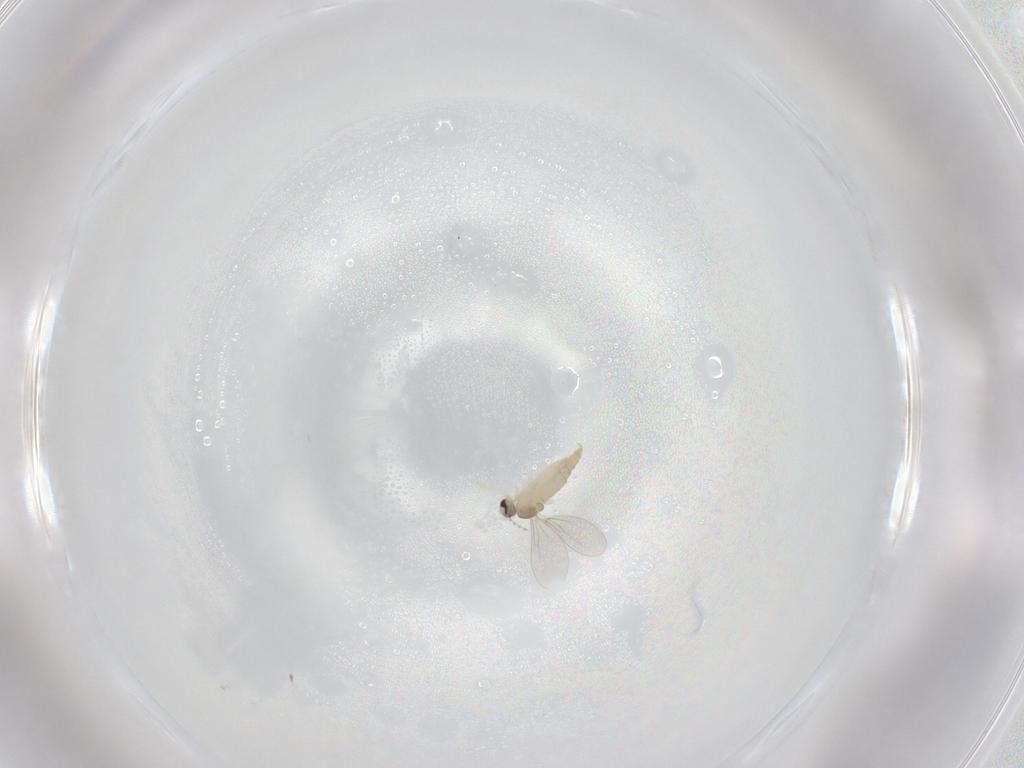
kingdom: Animalia
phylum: Arthropoda
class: Insecta
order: Diptera
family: Cecidomyiidae
